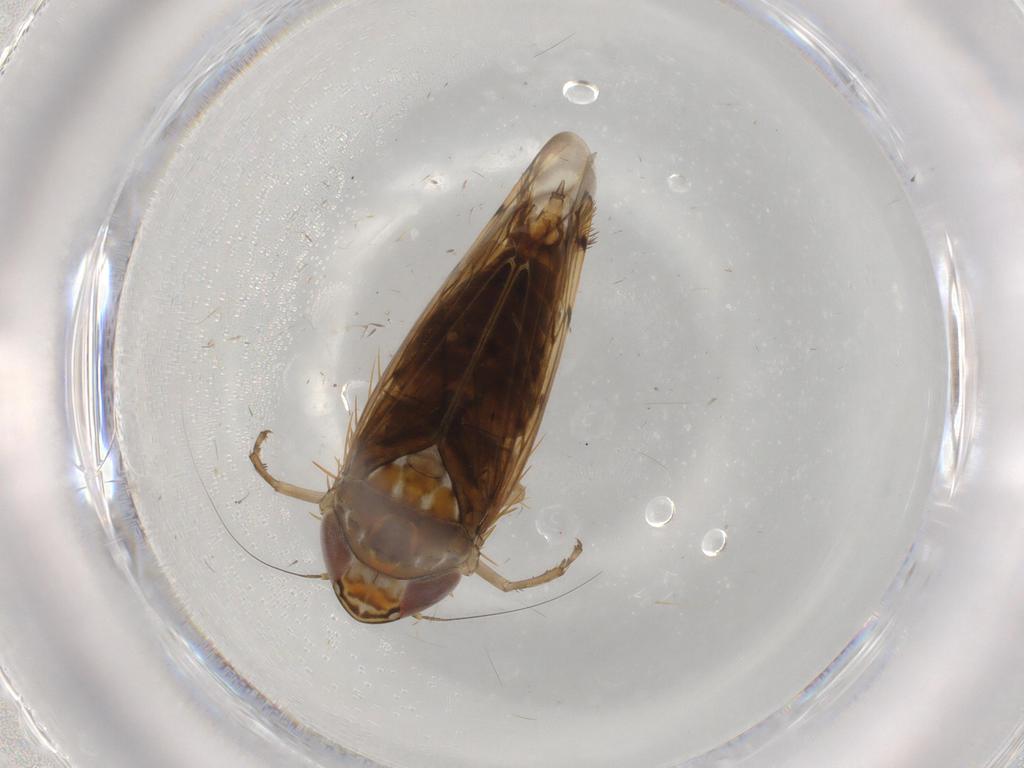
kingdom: Animalia
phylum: Arthropoda
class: Insecta
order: Hemiptera
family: Cicadellidae
